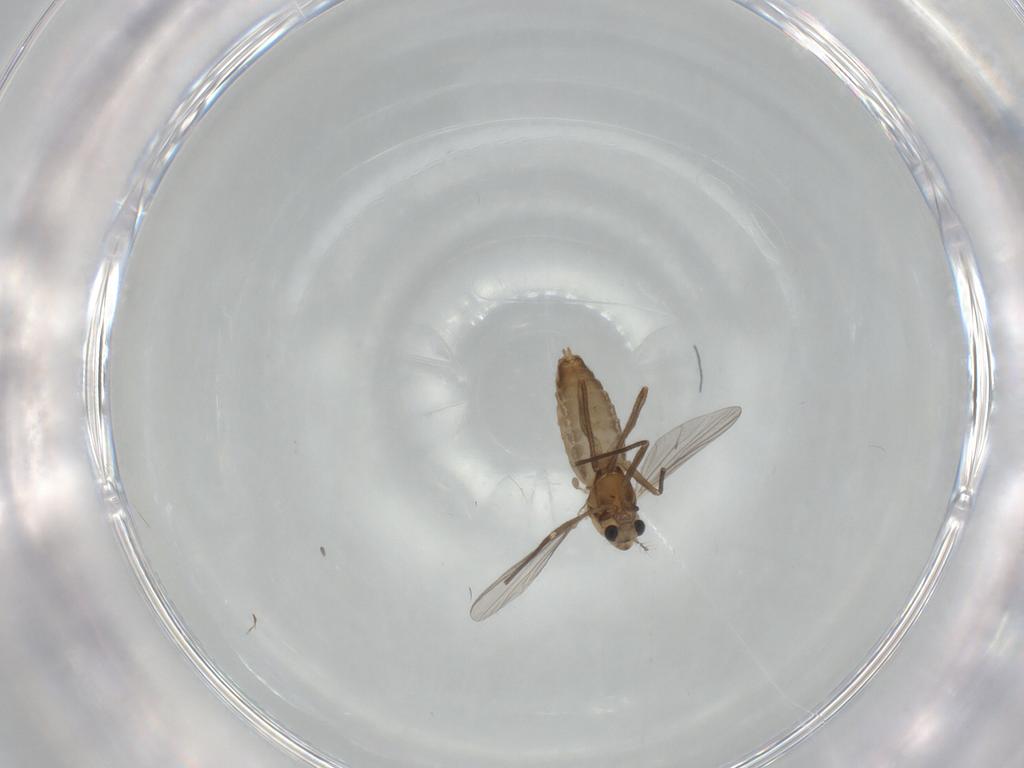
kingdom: Animalia
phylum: Arthropoda
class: Insecta
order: Diptera
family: Chironomidae
